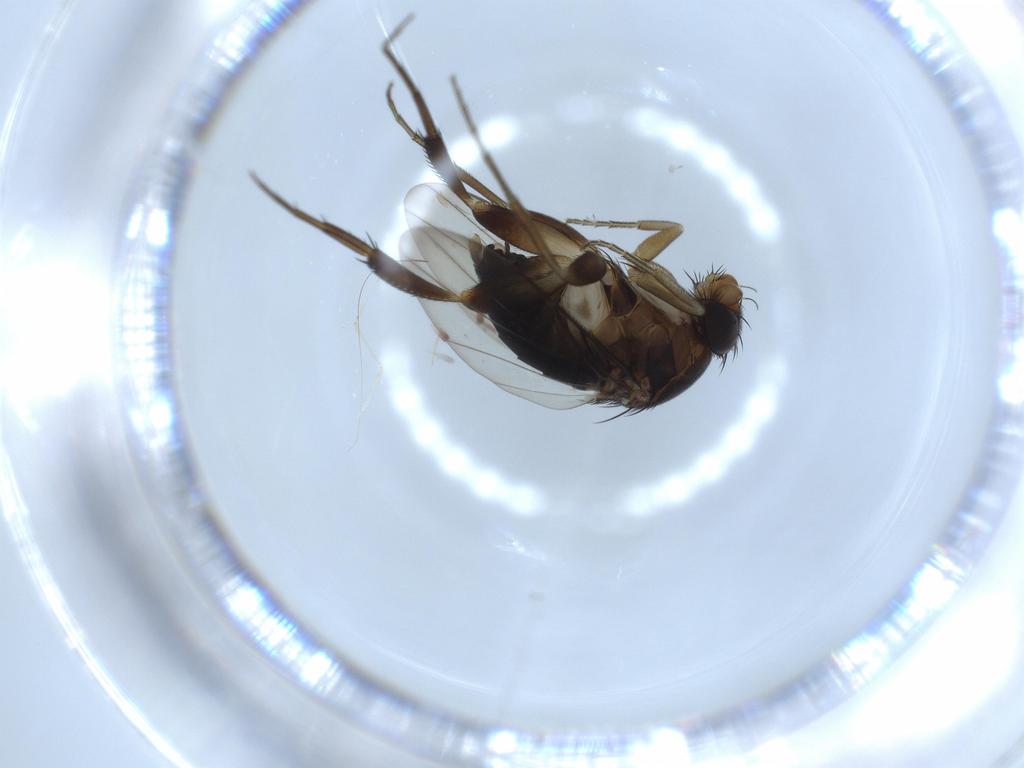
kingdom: Animalia
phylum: Arthropoda
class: Insecta
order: Diptera
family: Phoridae
